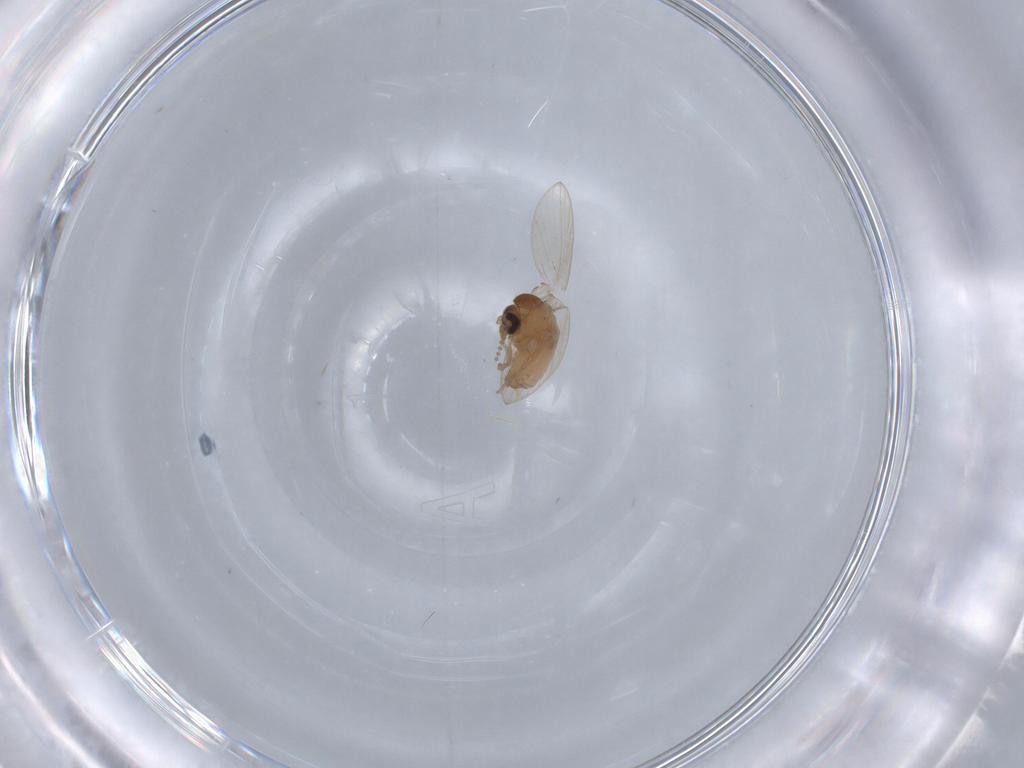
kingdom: Animalia
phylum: Arthropoda
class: Insecta
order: Diptera
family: Psychodidae
